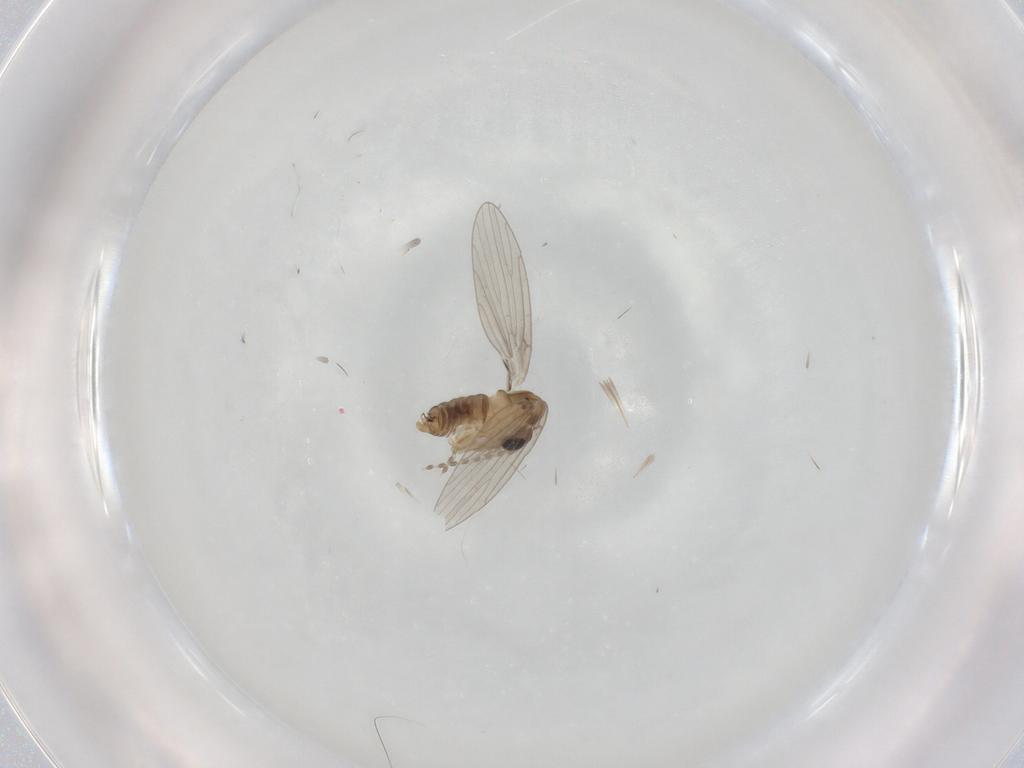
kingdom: Animalia
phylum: Arthropoda
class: Insecta
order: Diptera
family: Psychodidae
